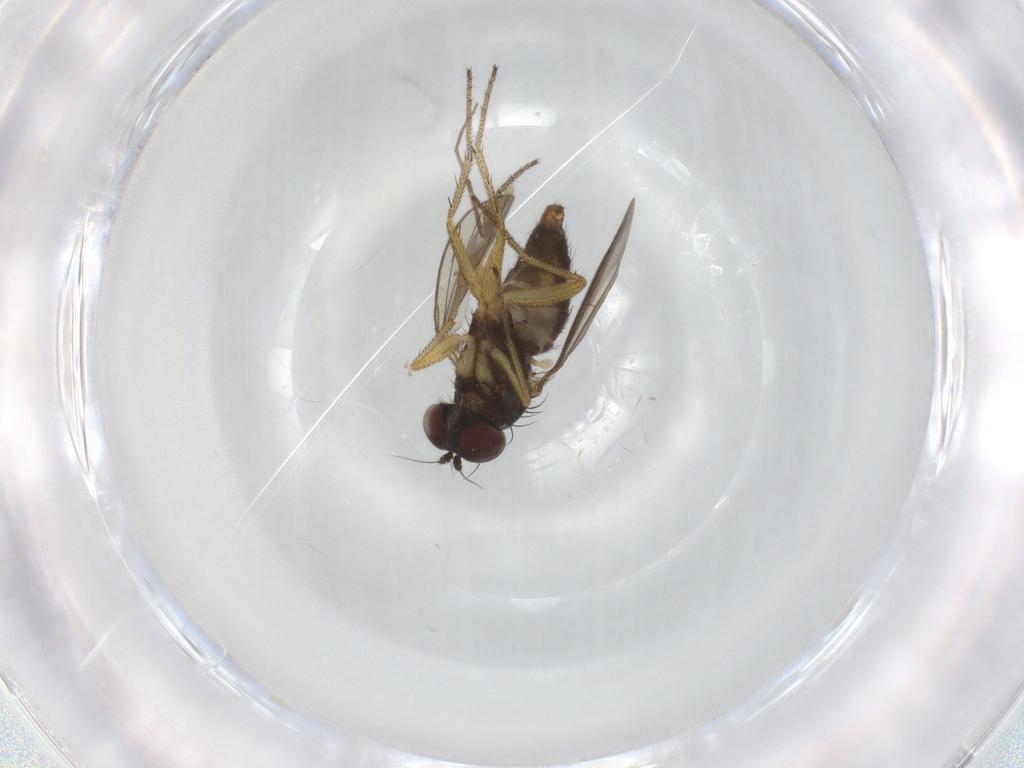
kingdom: Animalia
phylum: Arthropoda
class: Insecta
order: Diptera
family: Dolichopodidae
